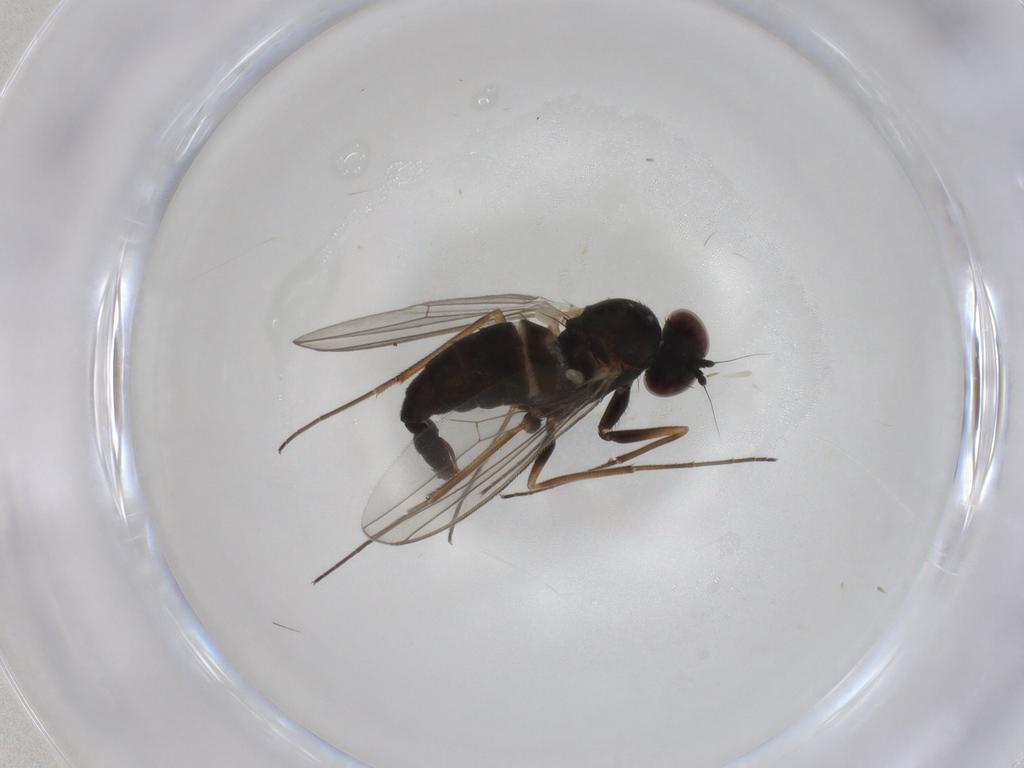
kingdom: Animalia
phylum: Arthropoda
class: Insecta
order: Diptera
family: Dolichopodidae
